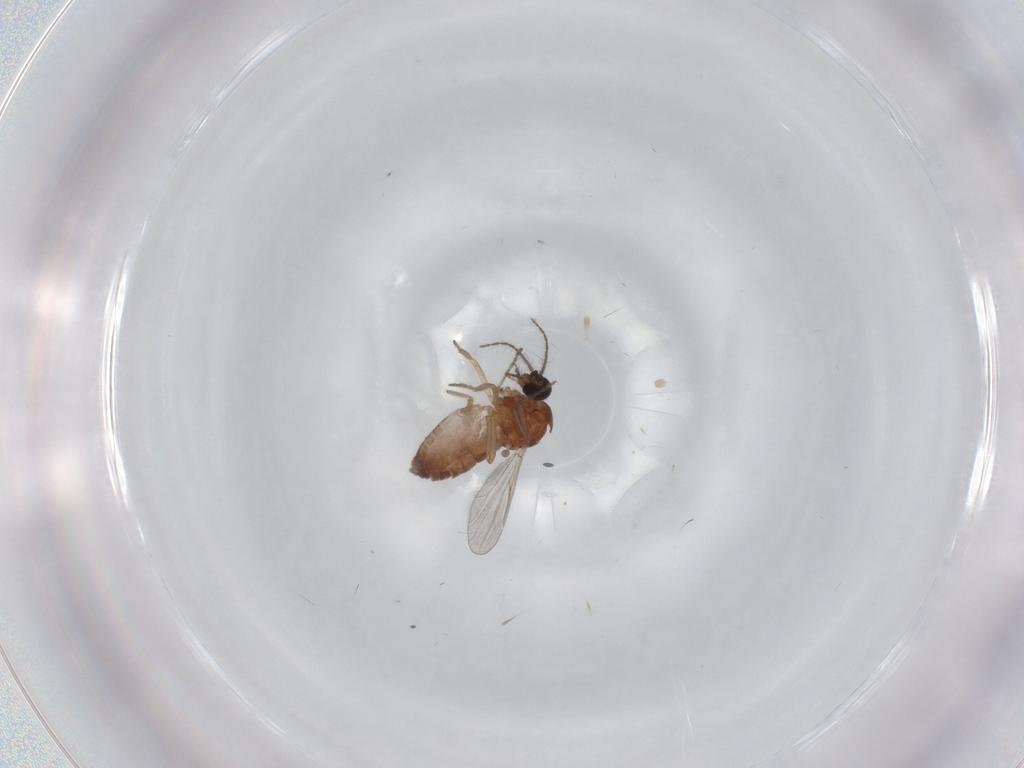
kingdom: Animalia
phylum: Arthropoda
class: Insecta
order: Diptera
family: Ceratopogonidae
